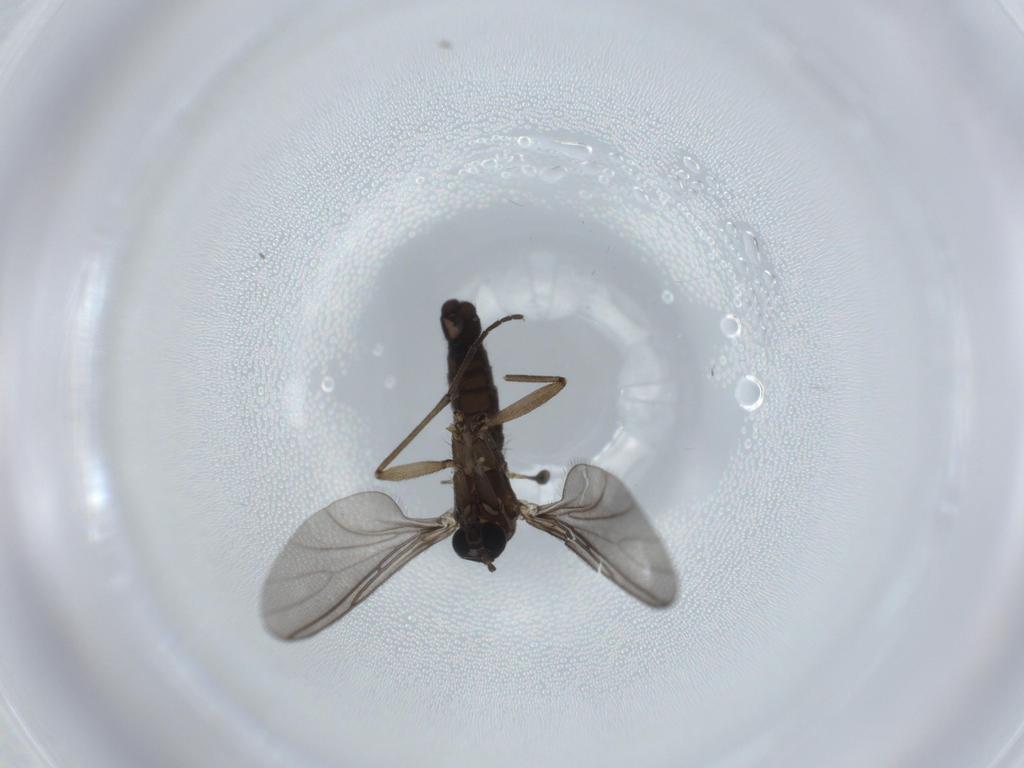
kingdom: Animalia
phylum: Arthropoda
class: Insecta
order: Diptera
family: Sciaridae
